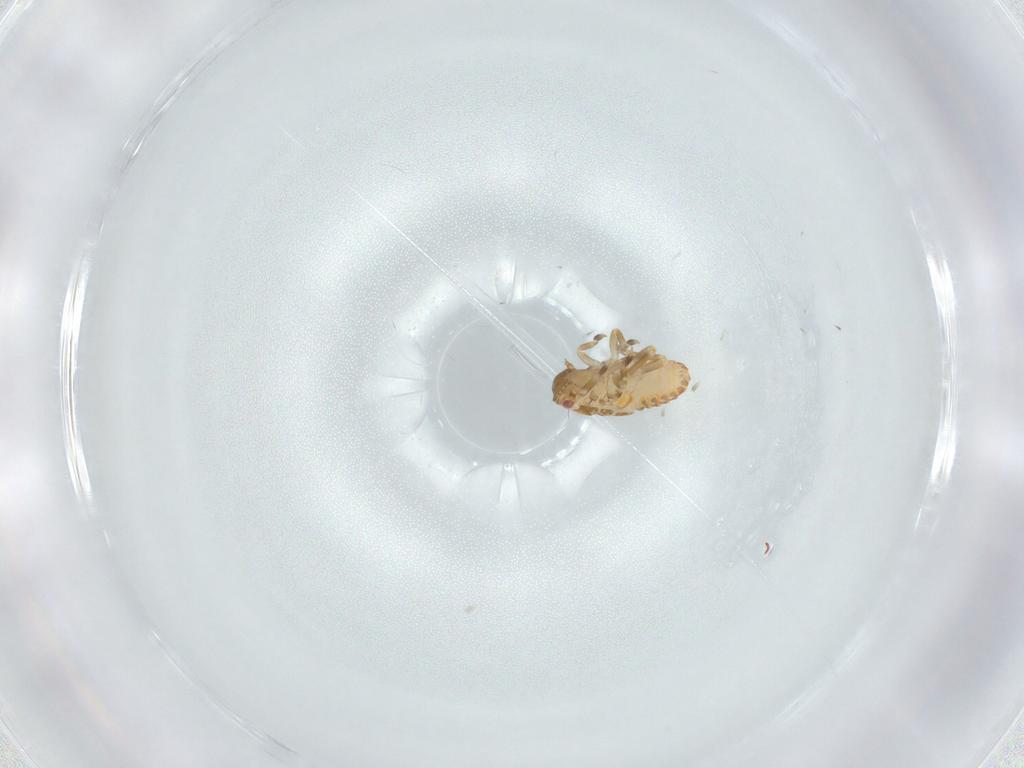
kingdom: Animalia
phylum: Arthropoda
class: Insecta
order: Hemiptera
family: Flatidae
